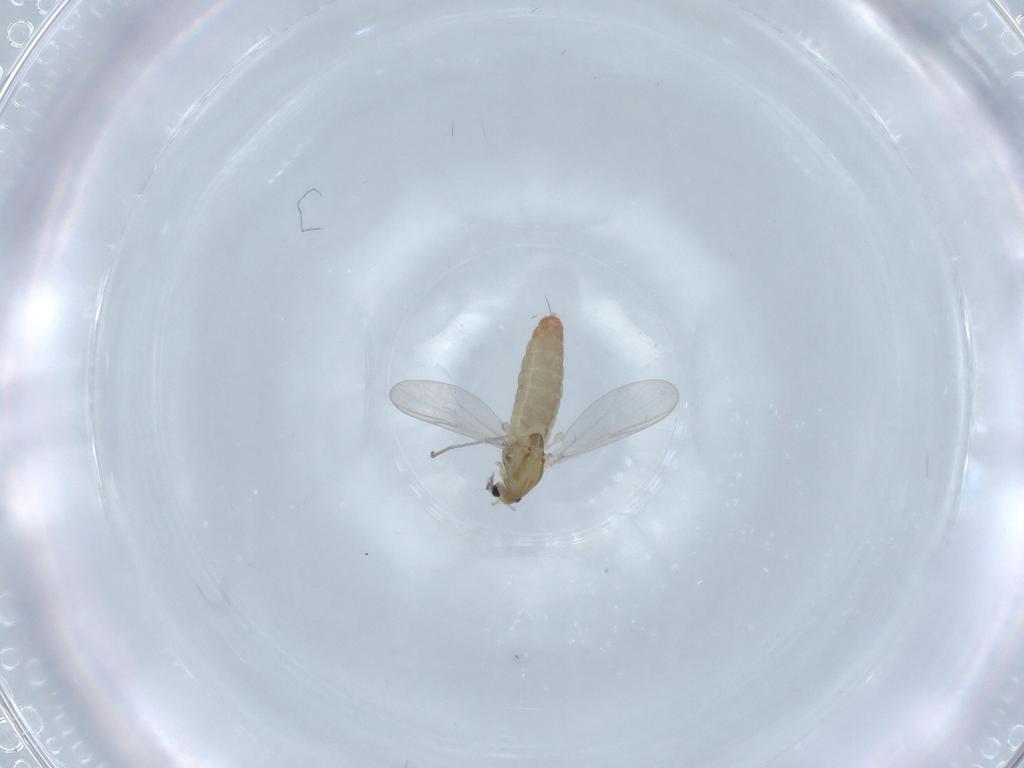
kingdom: Animalia
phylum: Arthropoda
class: Insecta
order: Diptera
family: Chironomidae
